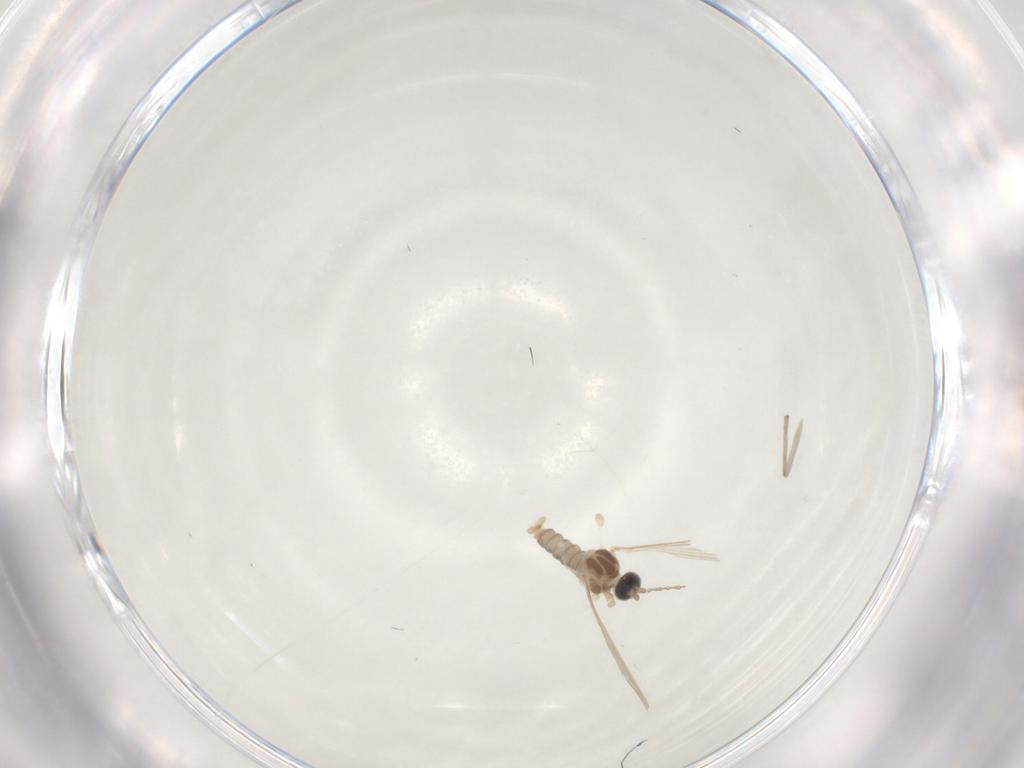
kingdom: Animalia
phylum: Arthropoda
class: Insecta
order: Diptera
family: Cecidomyiidae
